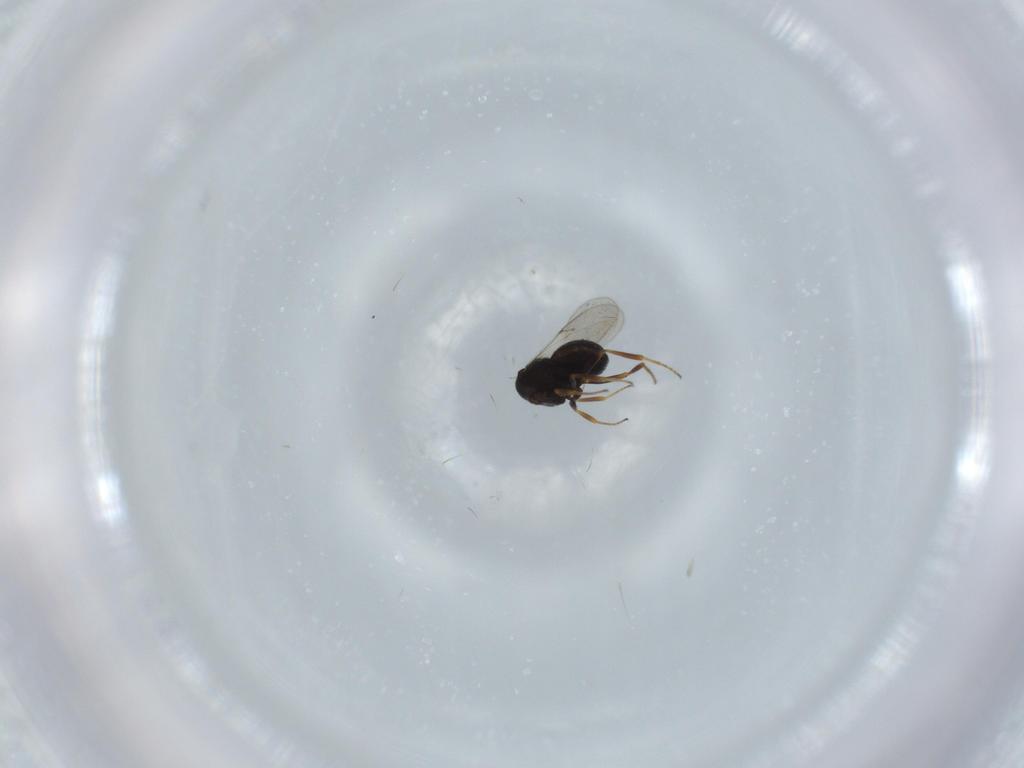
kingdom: Animalia
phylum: Arthropoda
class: Insecta
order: Hymenoptera
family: Scelionidae
